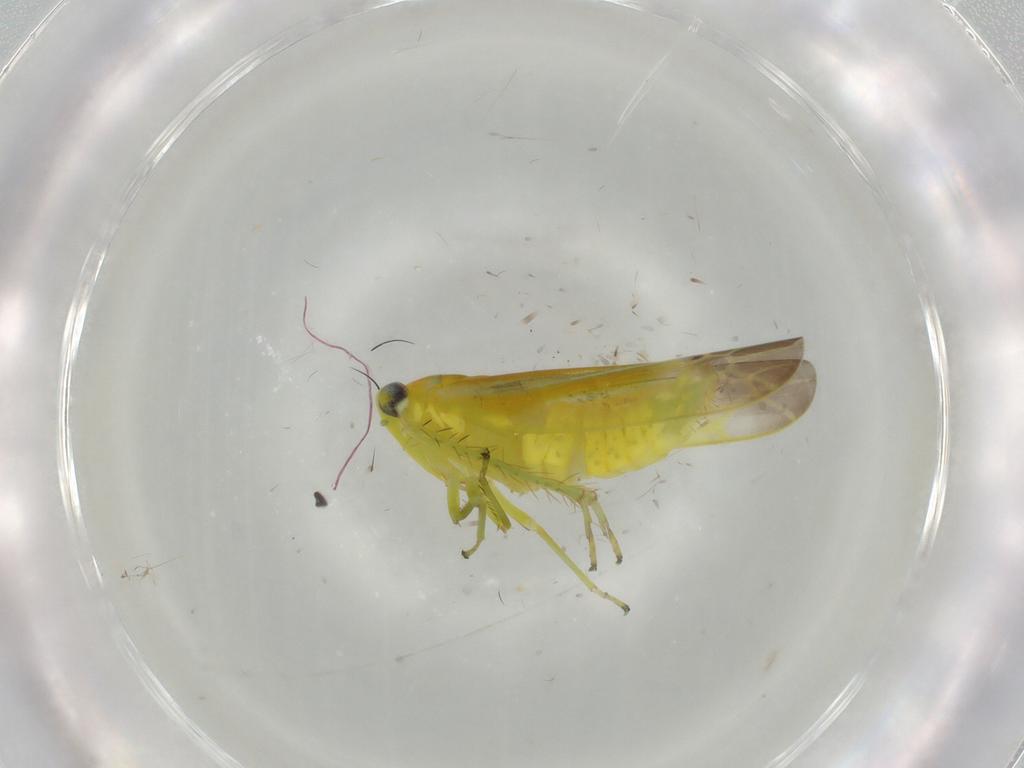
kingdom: Animalia
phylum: Arthropoda
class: Insecta
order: Hemiptera
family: Cicadellidae
